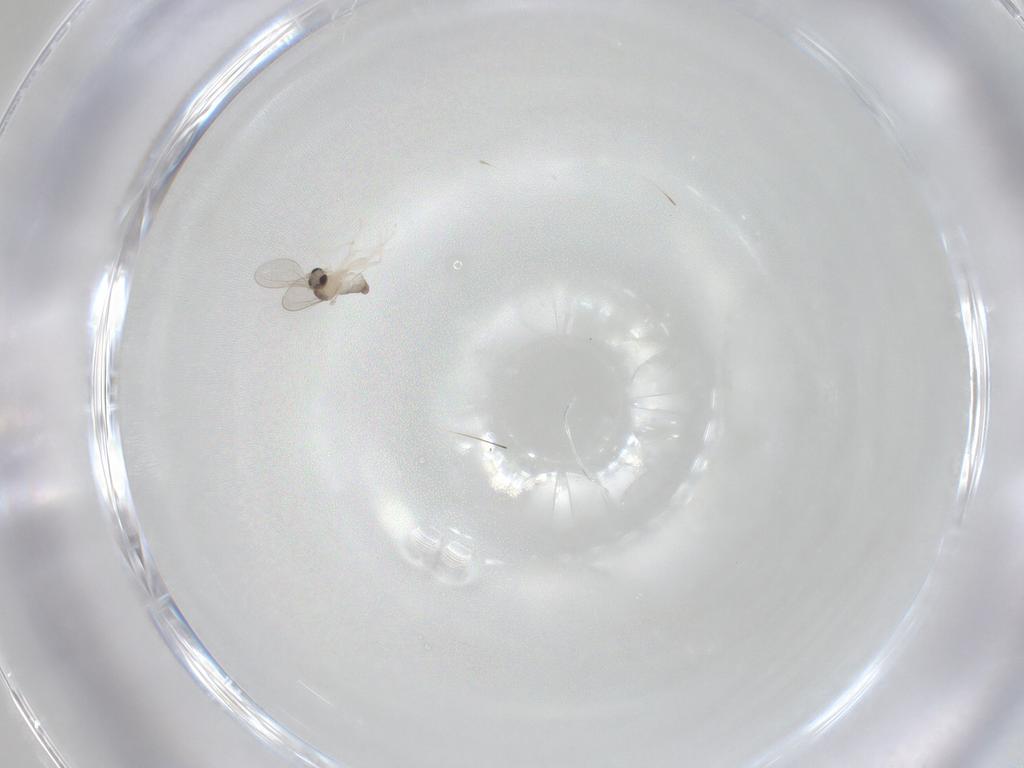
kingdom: Animalia
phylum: Arthropoda
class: Insecta
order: Diptera
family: Cecidomyiidae
